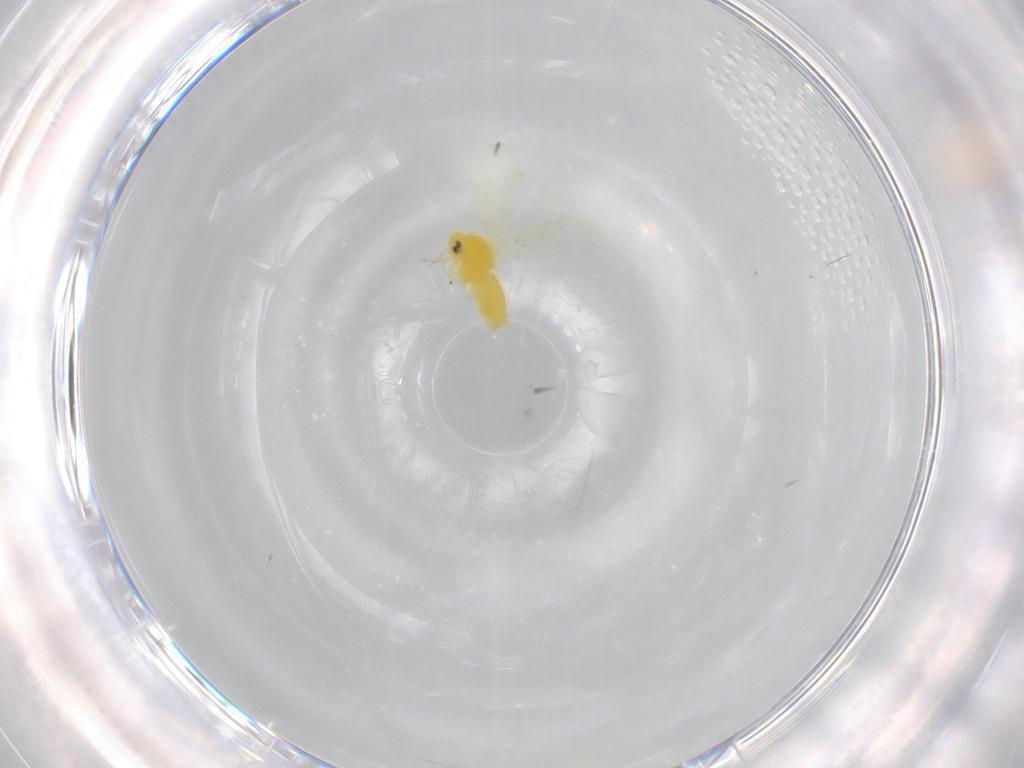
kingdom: Animalia
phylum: Arthropoda
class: Insecta
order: Hemiptera
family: Aleyrodidae
